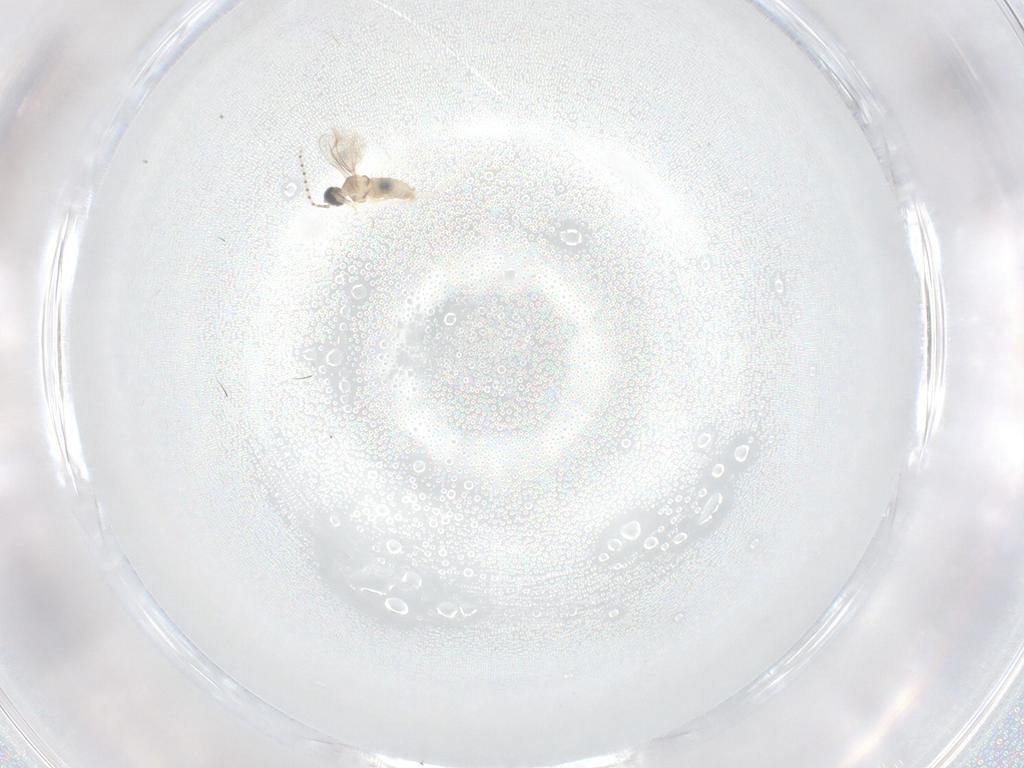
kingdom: Animalia
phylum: Arthropoda
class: Insecta
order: Diptera
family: Cecidomyiidae
